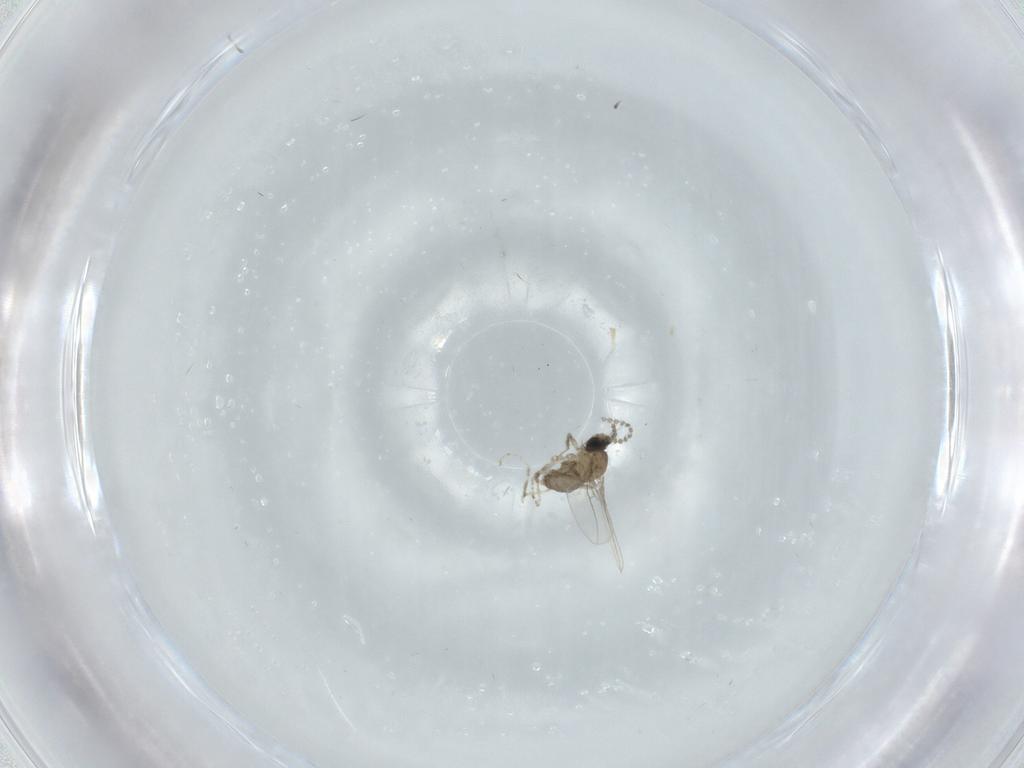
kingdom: Animalia
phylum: Arthropoda
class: Insecta
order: Diptera
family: Cecidomyiidae
